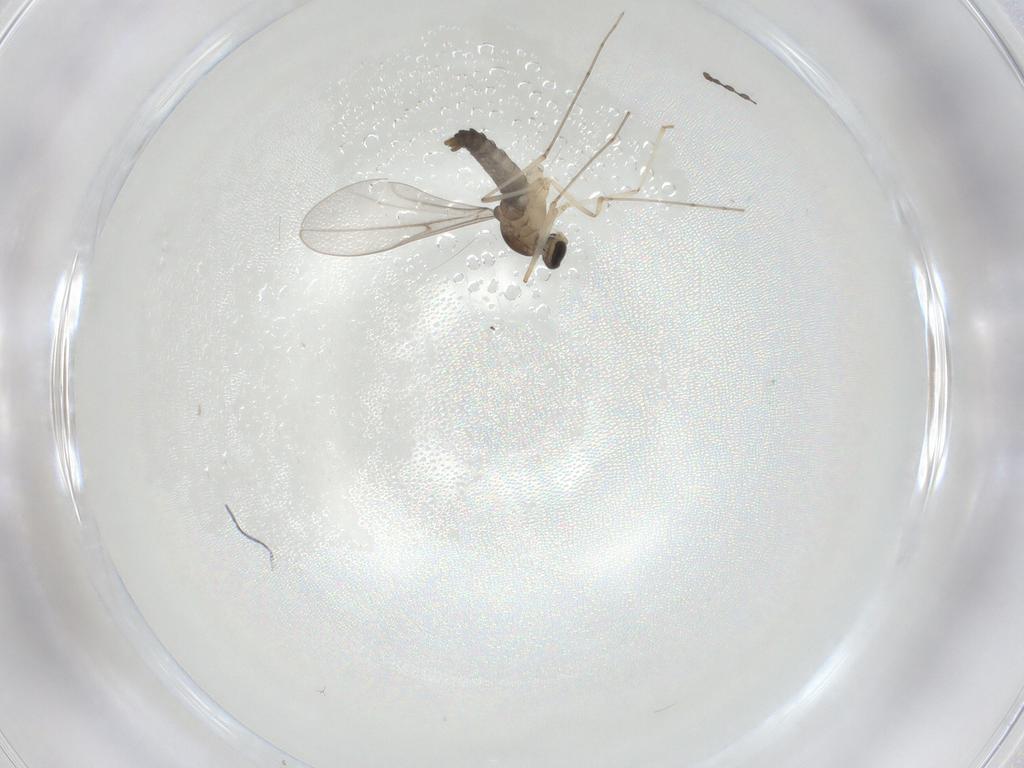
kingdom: Animalia
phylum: Arthropoda
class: Insecta
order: Diptera
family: Cecidomyiidae
